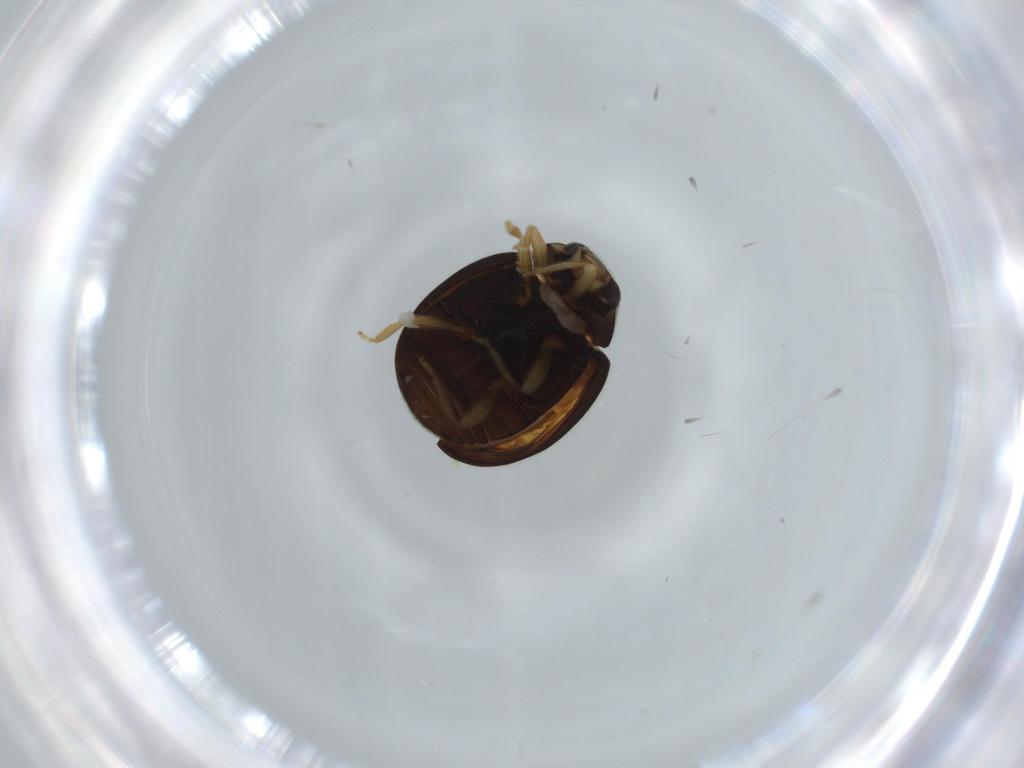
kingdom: Animalia
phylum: Arthropoda
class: Insecta
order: Coleoptera
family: Coccinellidae
